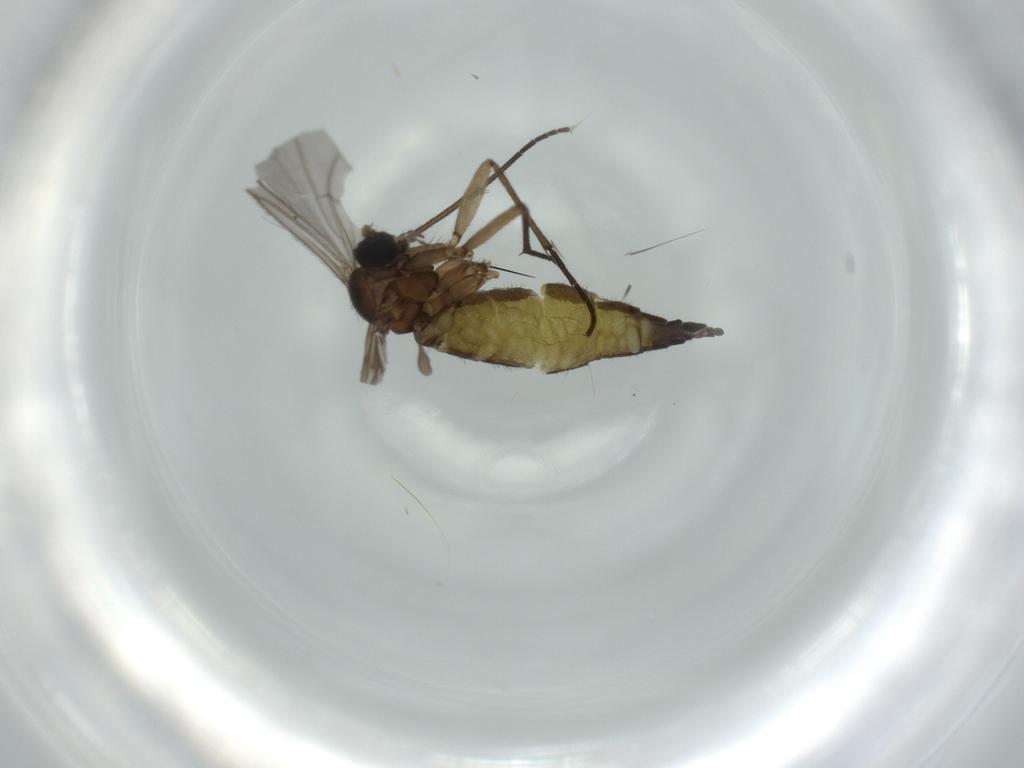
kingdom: Animalia
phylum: Arthropoda
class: Insecta
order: Diptera
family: Sciaridae
